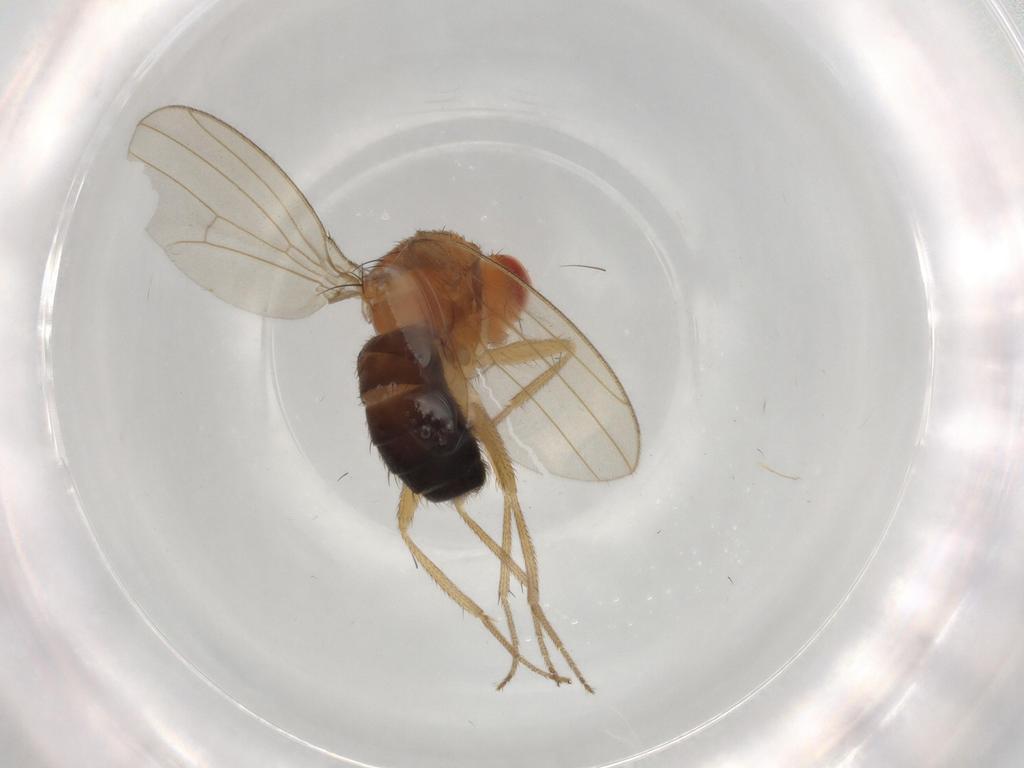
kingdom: Animalia
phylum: Arthropoda
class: Insecta
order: Diptera
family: Drosophilidae
